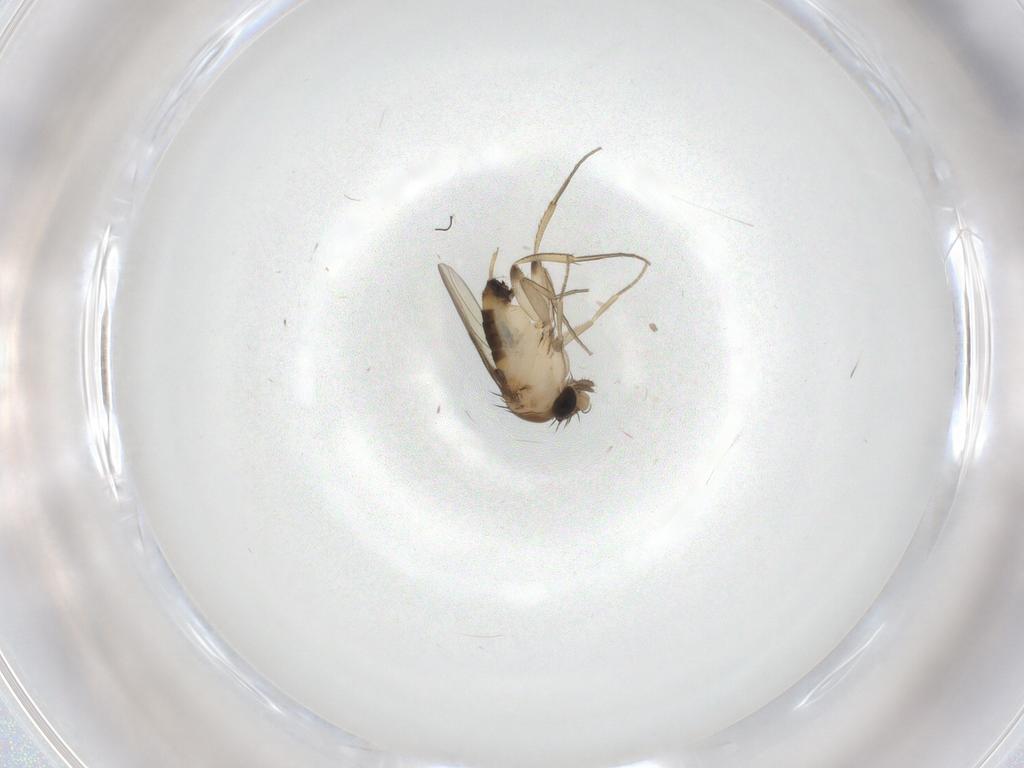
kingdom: Animalia
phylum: Arthropoda
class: Insecta
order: Diptera
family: Phoridae
